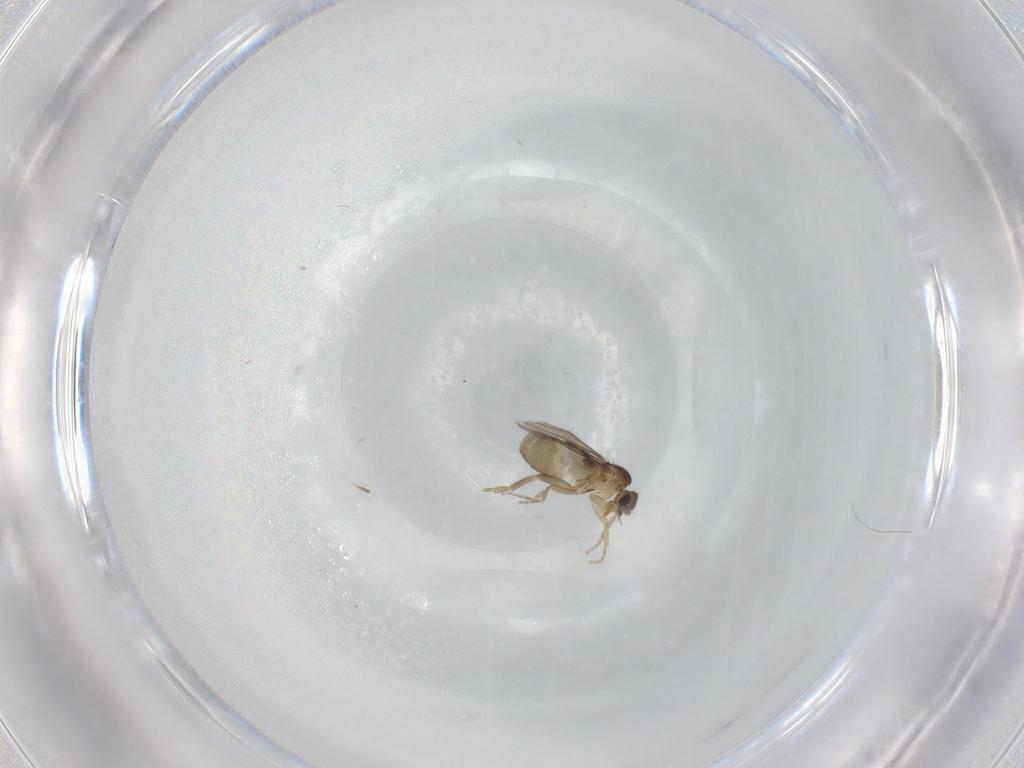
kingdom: Animalia
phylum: Arthropoda
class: Insecta
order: Diptera
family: Phoridae
